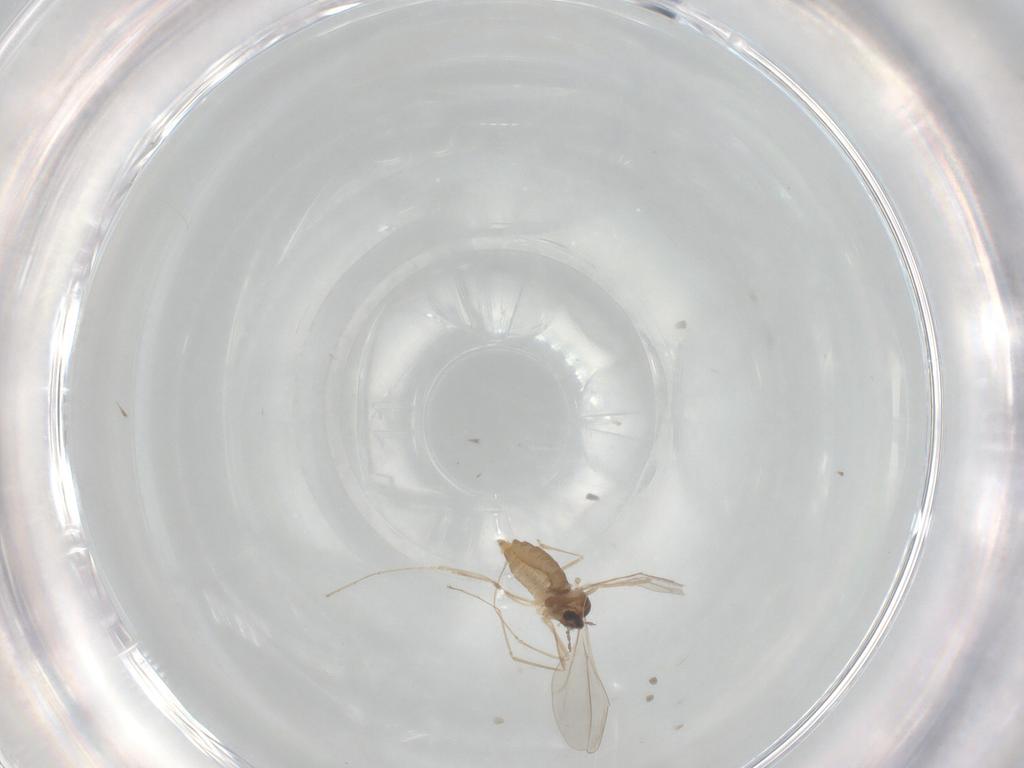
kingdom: Animalia
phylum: Arthropoda
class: Insecta
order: Diptera
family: Cecidomyiidae
